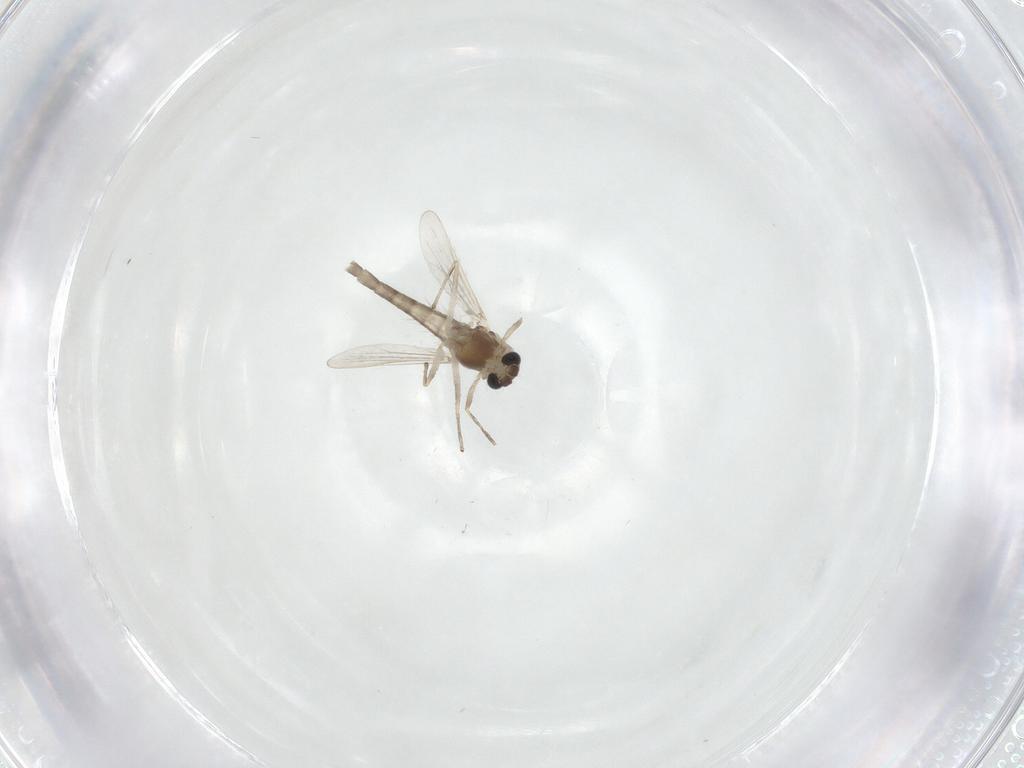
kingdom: Animalia
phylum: Arthropoda
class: Insecta
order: Diptera
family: Chironomidae
